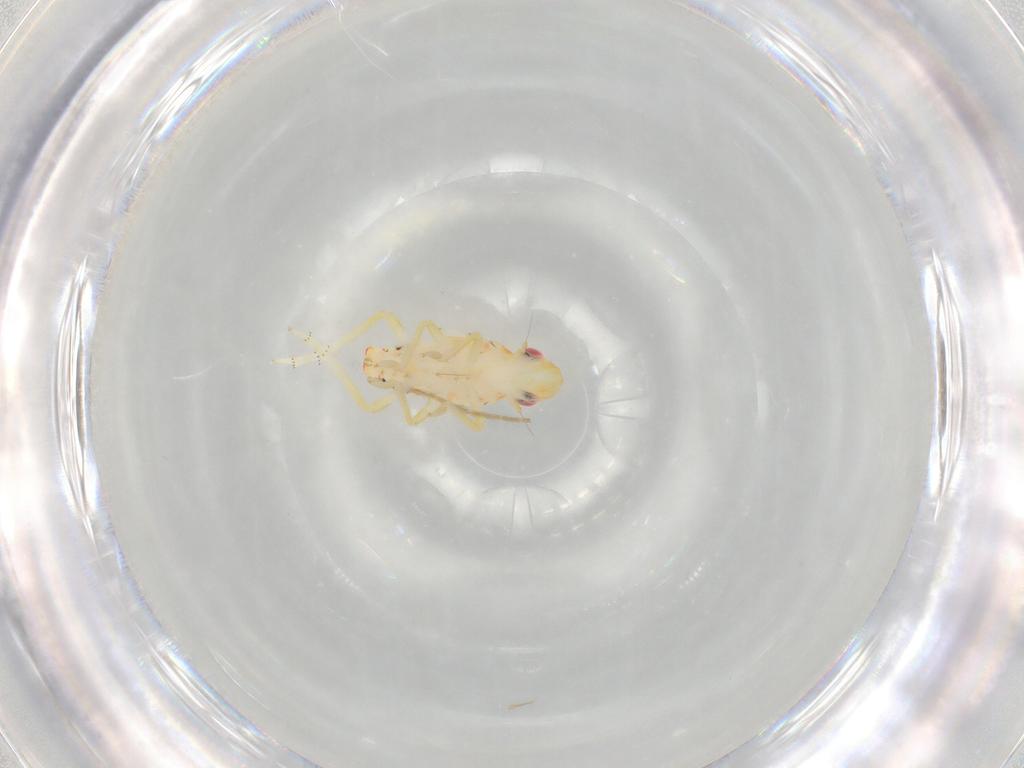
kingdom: Animalia
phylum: Arthropoda
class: Insecta
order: Hemiptera
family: Tropiduchidae
